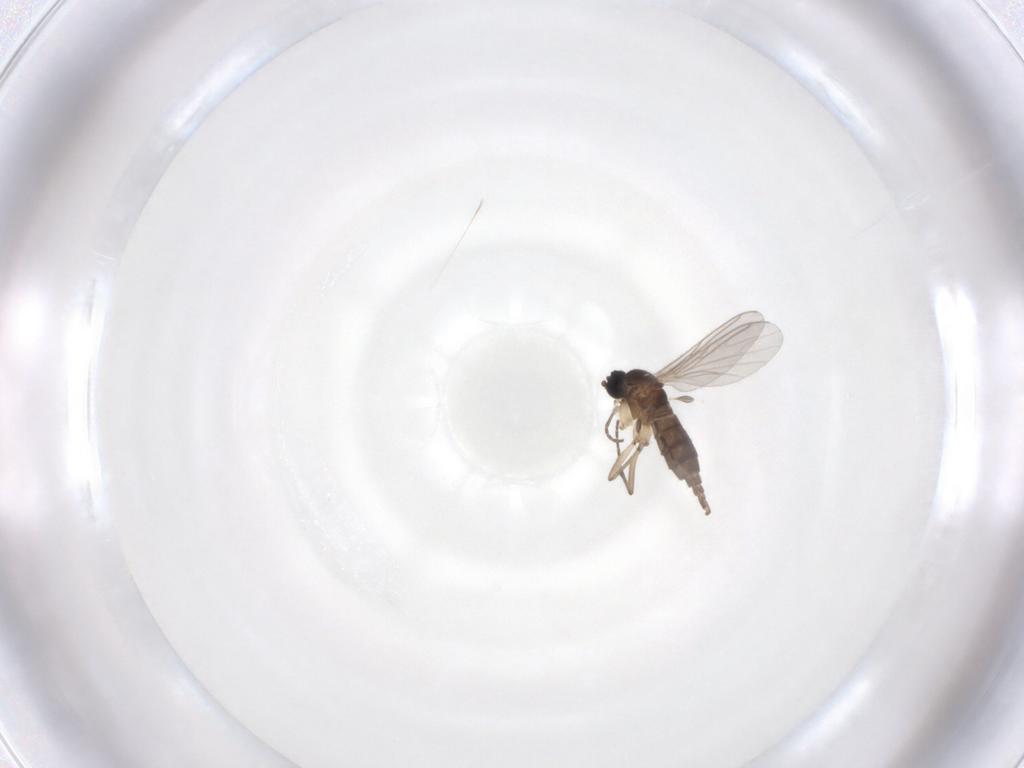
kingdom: Animalia
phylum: Arthropoda
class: Insecta
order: Diptera
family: Sciaridae
